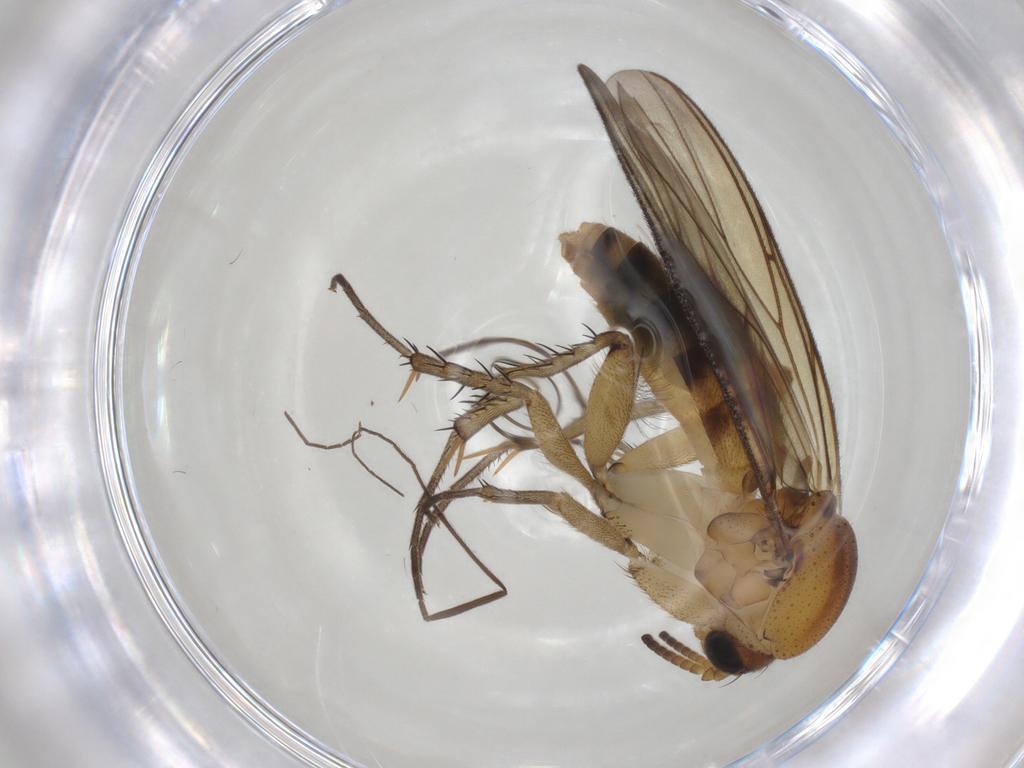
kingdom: Animalia
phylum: Arthropoda
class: Insecta
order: Diptera
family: Chironomidae
